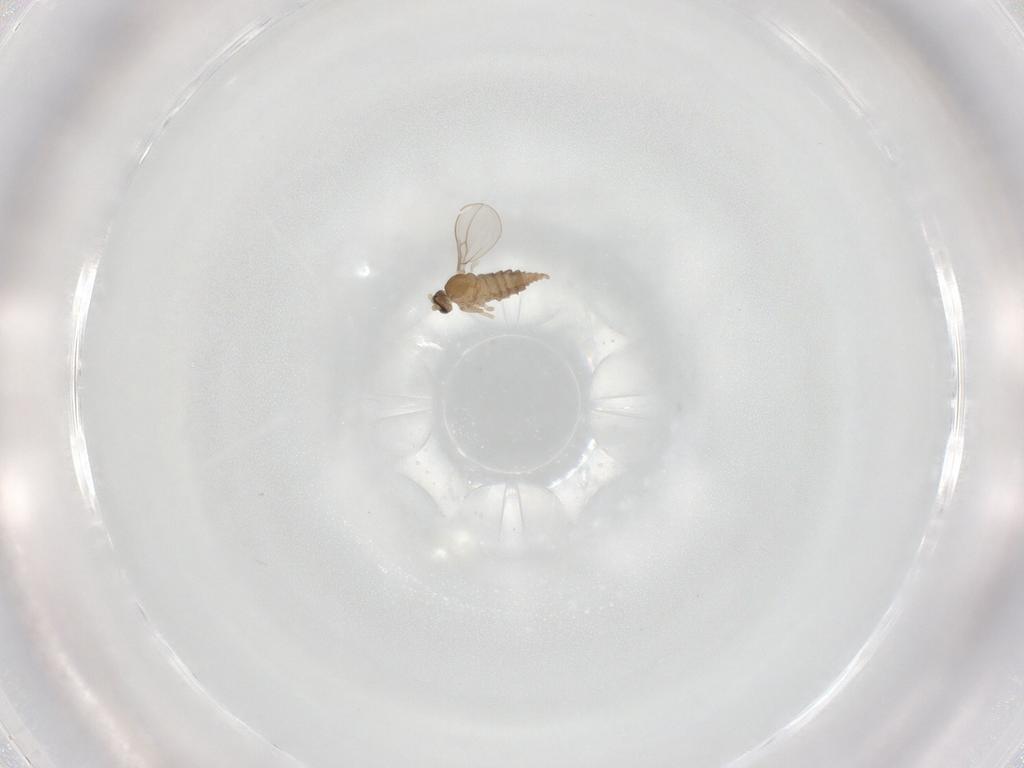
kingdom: Animalia
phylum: Arthropoda
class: Insecta
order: Diptera
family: Cecidomyiidae
